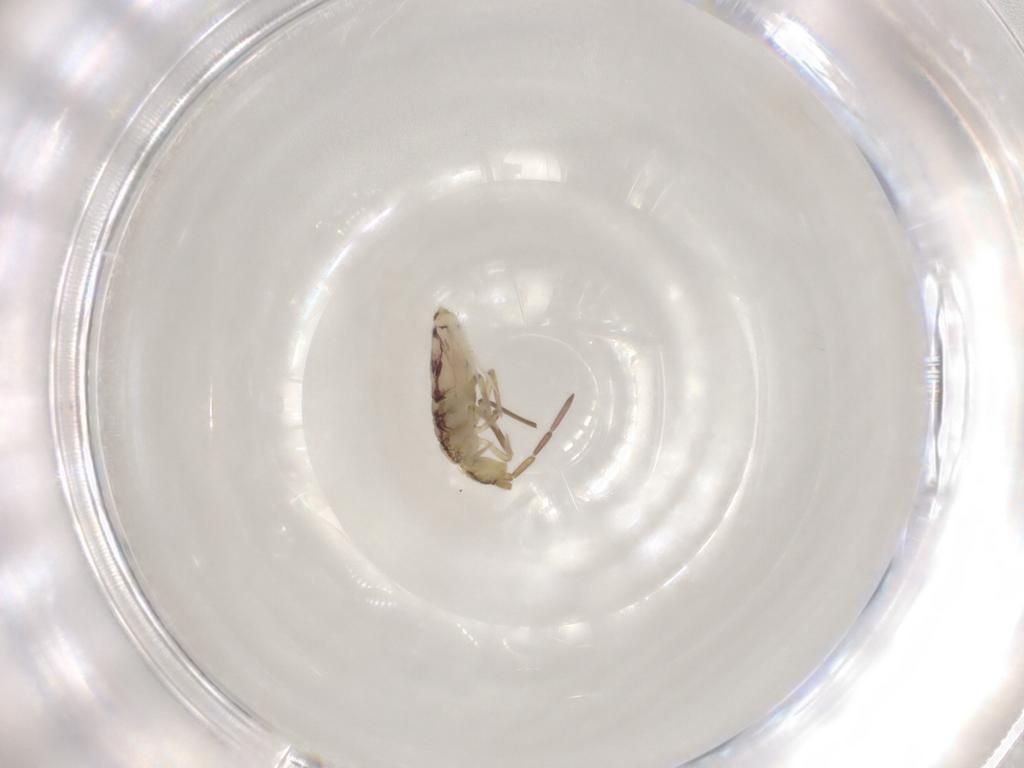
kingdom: Animalia
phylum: Arthropoda
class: Collembola
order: Entomobryomorpha
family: Entomobryidae
